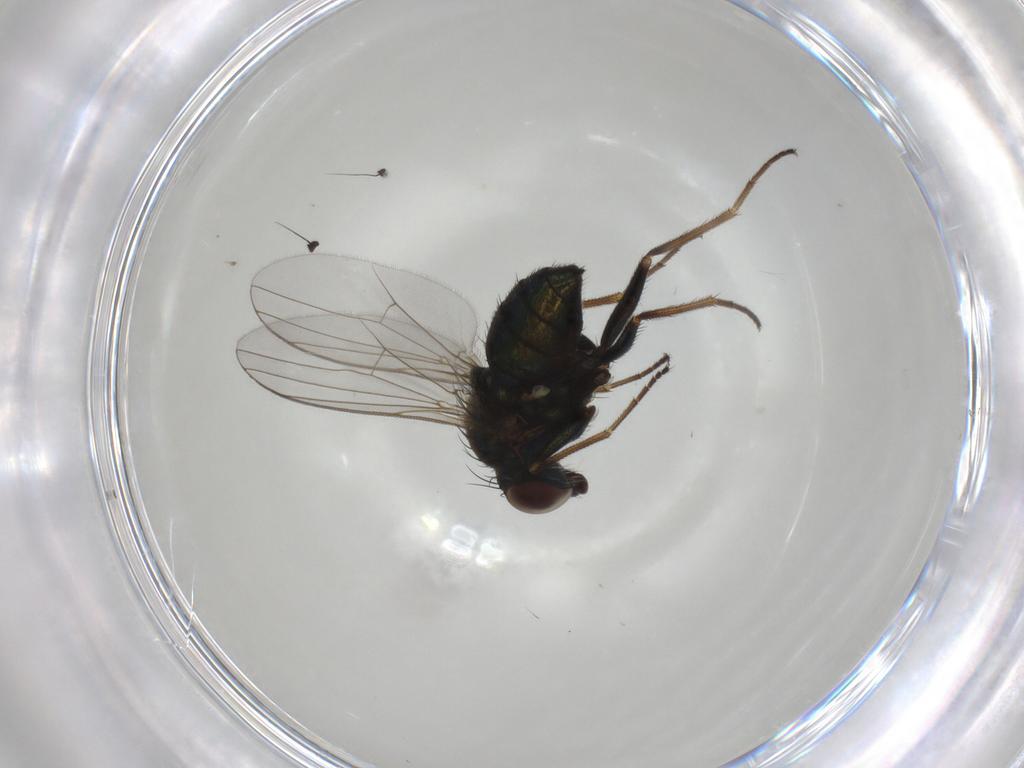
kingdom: Animalia
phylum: Arthropoda
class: Insecta
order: Diptera
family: Dolichopodidae
